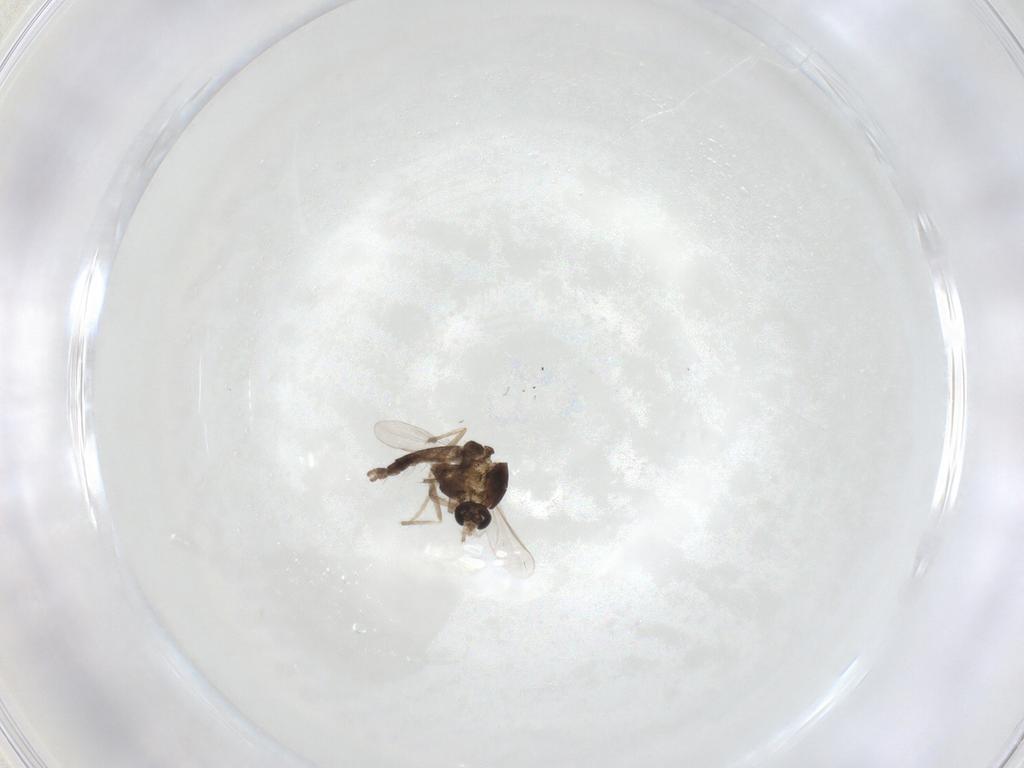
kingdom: Animalia
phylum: Arthropoda
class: Insecta
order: Diptera
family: Chironomidae
